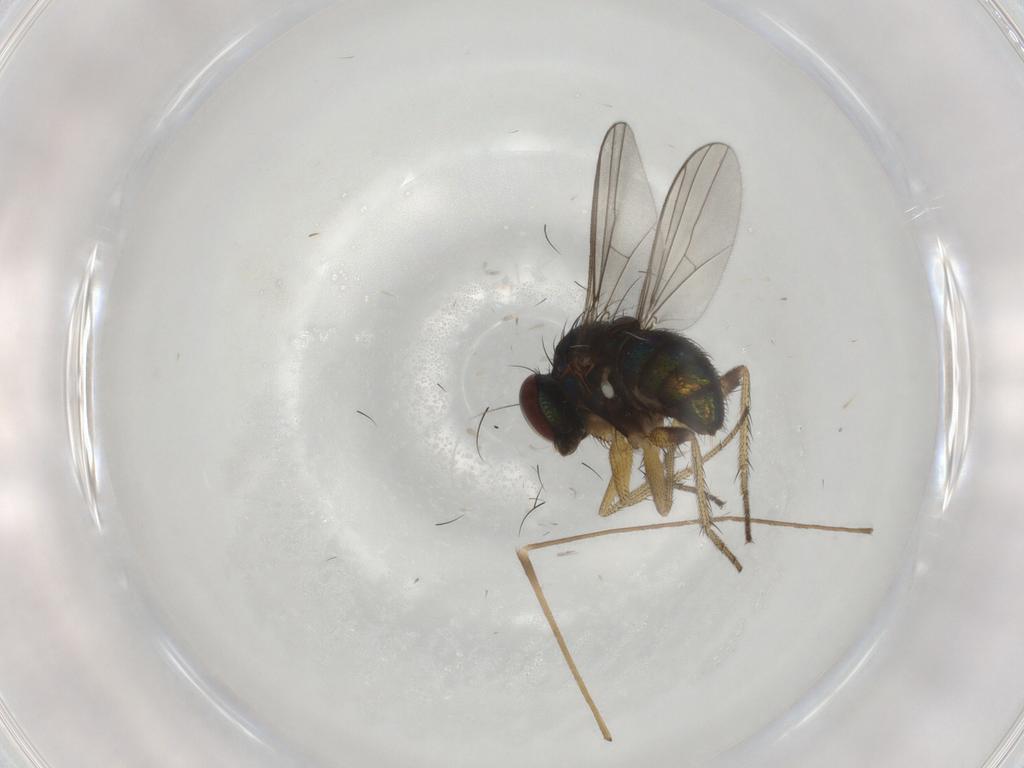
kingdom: Animalia
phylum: Arthropoda
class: Insecta
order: Diptera
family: Dolichopodidae
